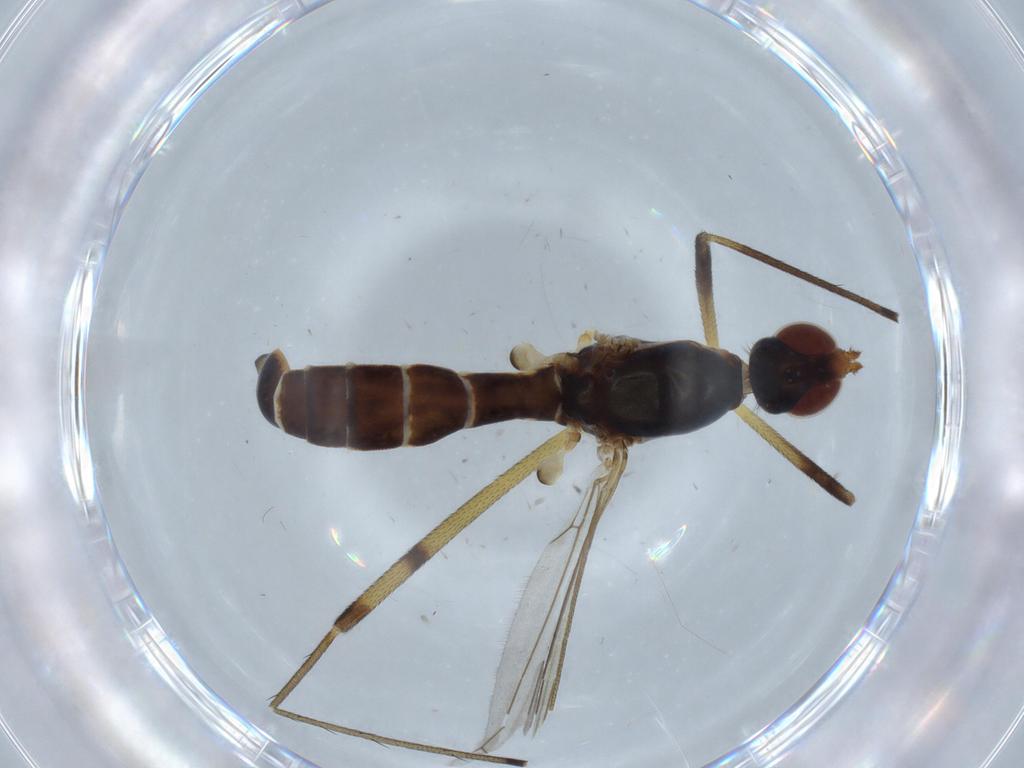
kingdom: Animalia
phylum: Arthropoda
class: Insecta
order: Diptera
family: Micropezidae
